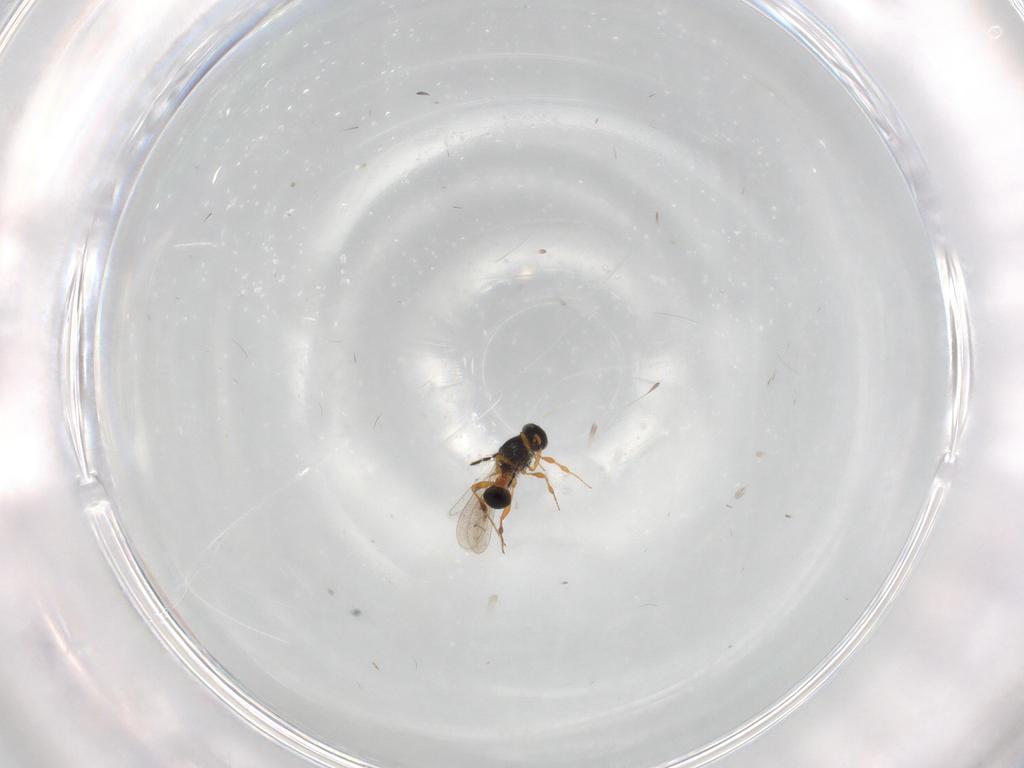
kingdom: Animalia
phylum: Arthropoda
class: Insecta
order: Hymenoptera
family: Platygastridae
